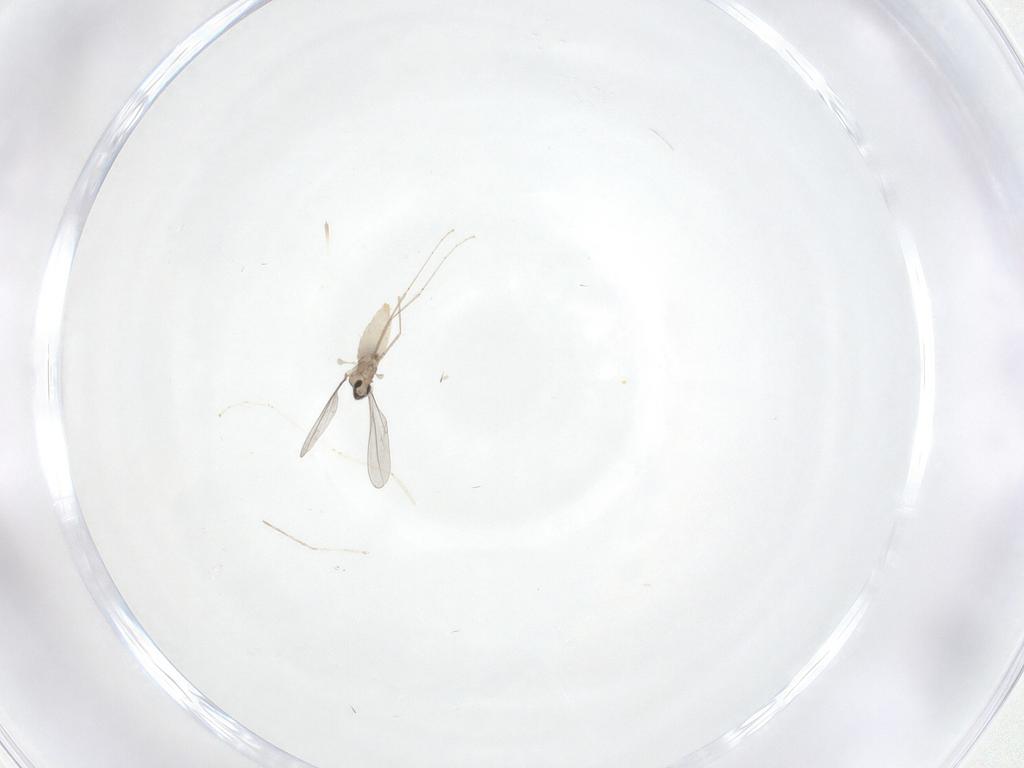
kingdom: Animalia
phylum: Arthropoda
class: Insecta
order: Diptera
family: Cecidomyiidae
